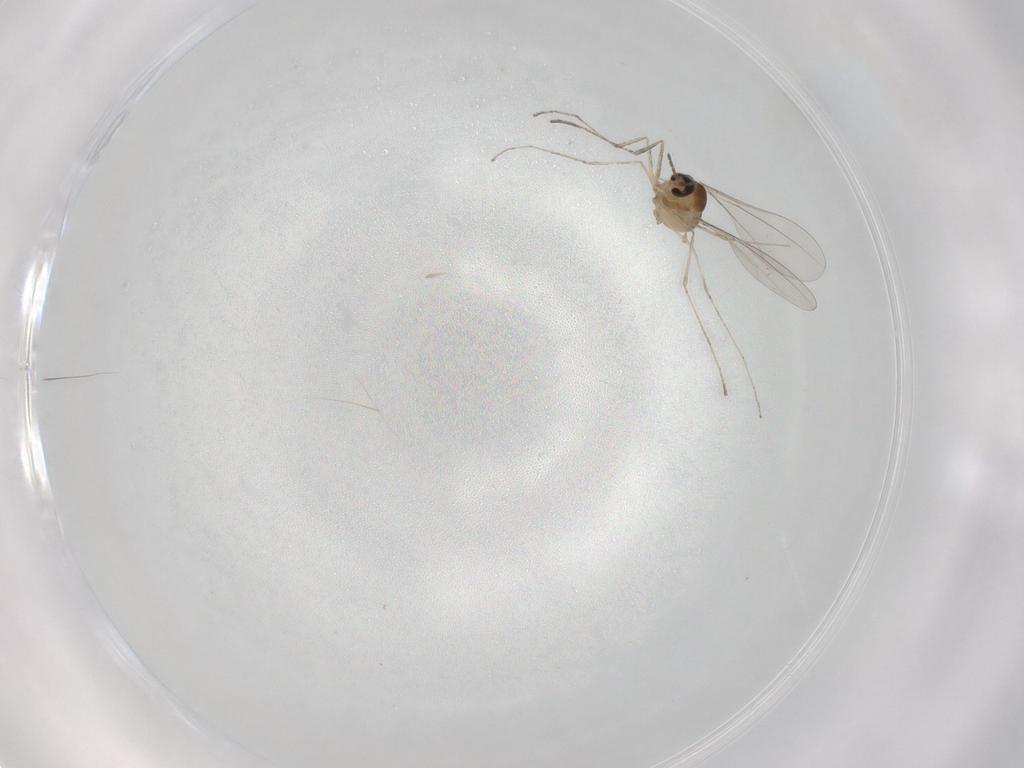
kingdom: Animalia
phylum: Arthropoda
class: Insecta
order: Diptera
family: Cecidomyiidae
